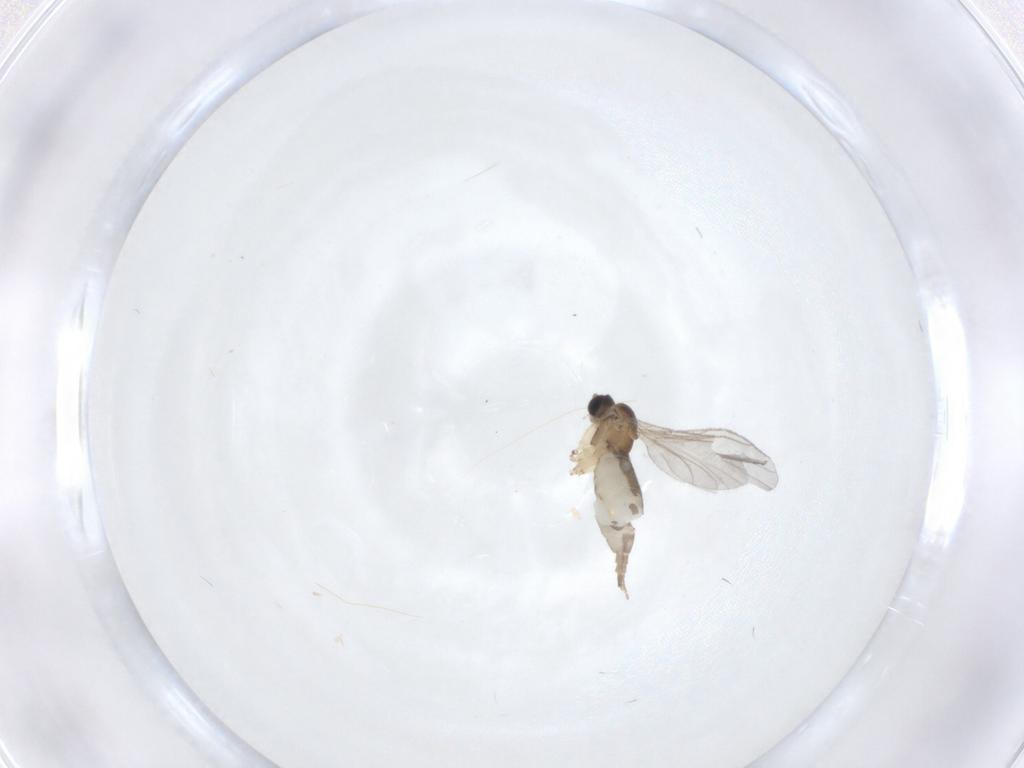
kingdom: Animalia
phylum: Arthropoda
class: Insecta
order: Diptera
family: Sciaridae
